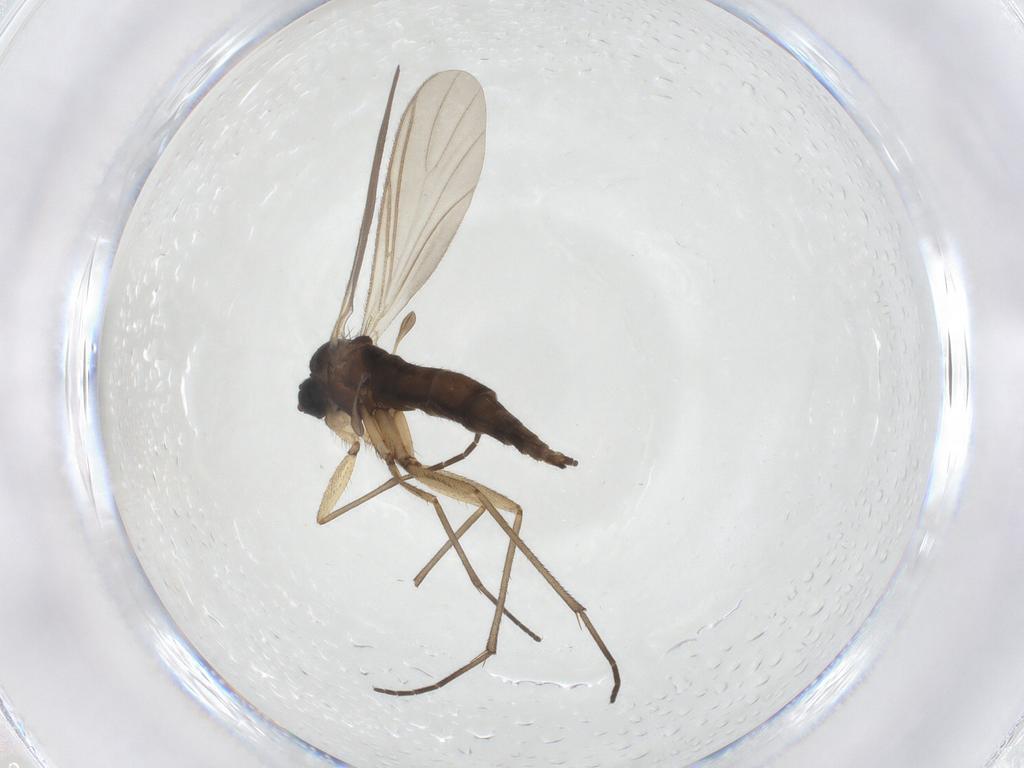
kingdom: Animalia
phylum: Arthropoda
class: Insecta
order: Diptera
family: Sciaridae
